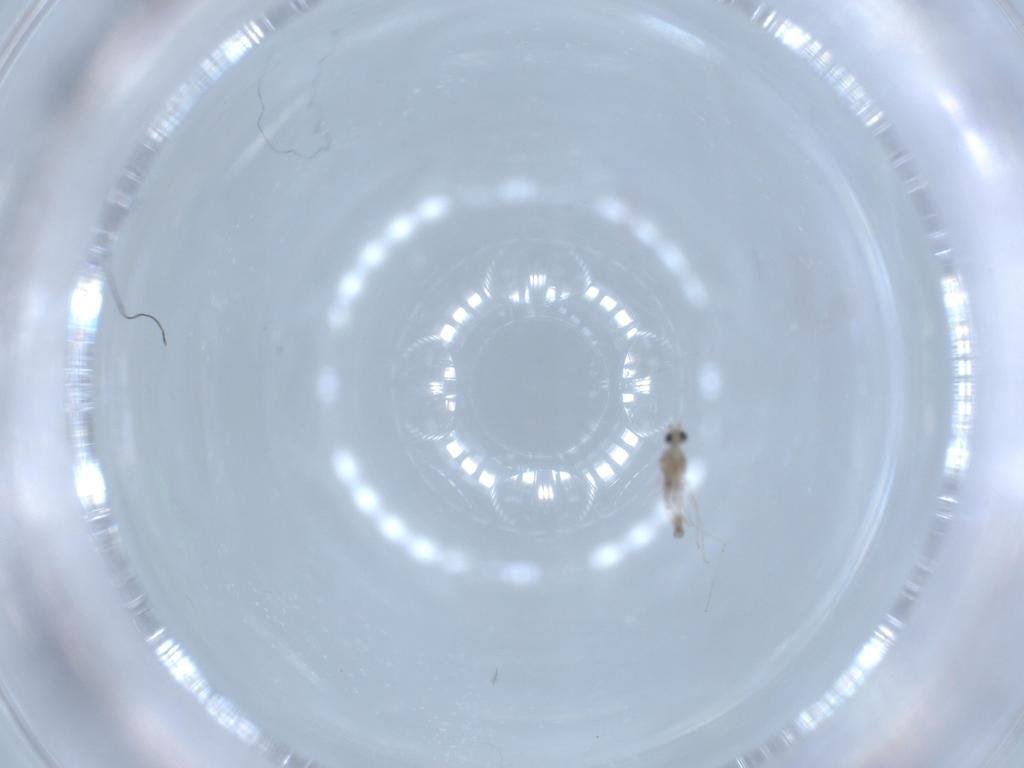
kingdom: Animalia
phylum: Arthropoda
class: Insecta
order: Diptera
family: Cecidomyiidae
